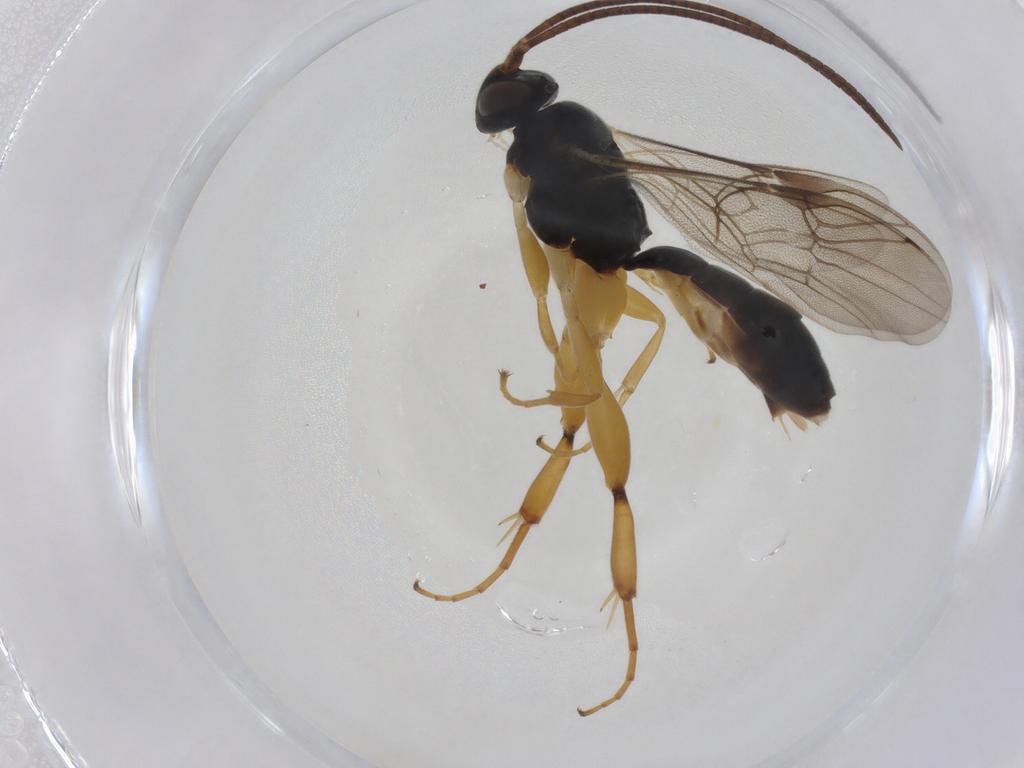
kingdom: Animalia
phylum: Arthropoda
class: Insecta
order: Hymenoptera
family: Ichneumonidae
